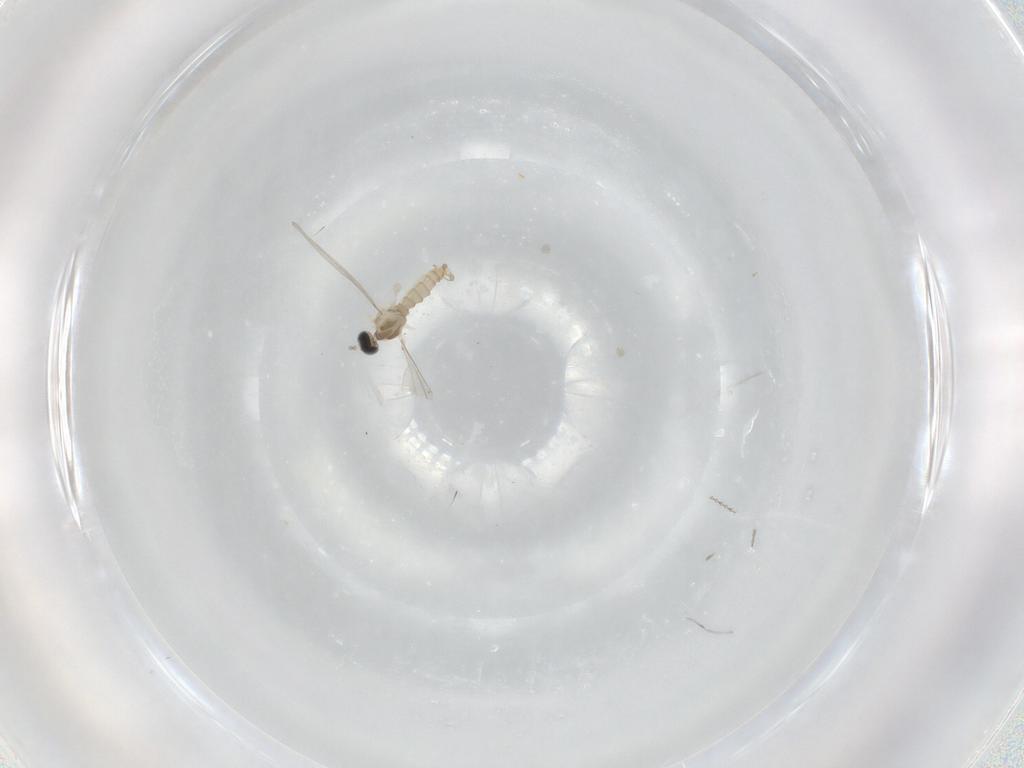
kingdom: Animalia
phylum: Arthropoda
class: Insecta
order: Diptera
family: Cecidomyiidae
